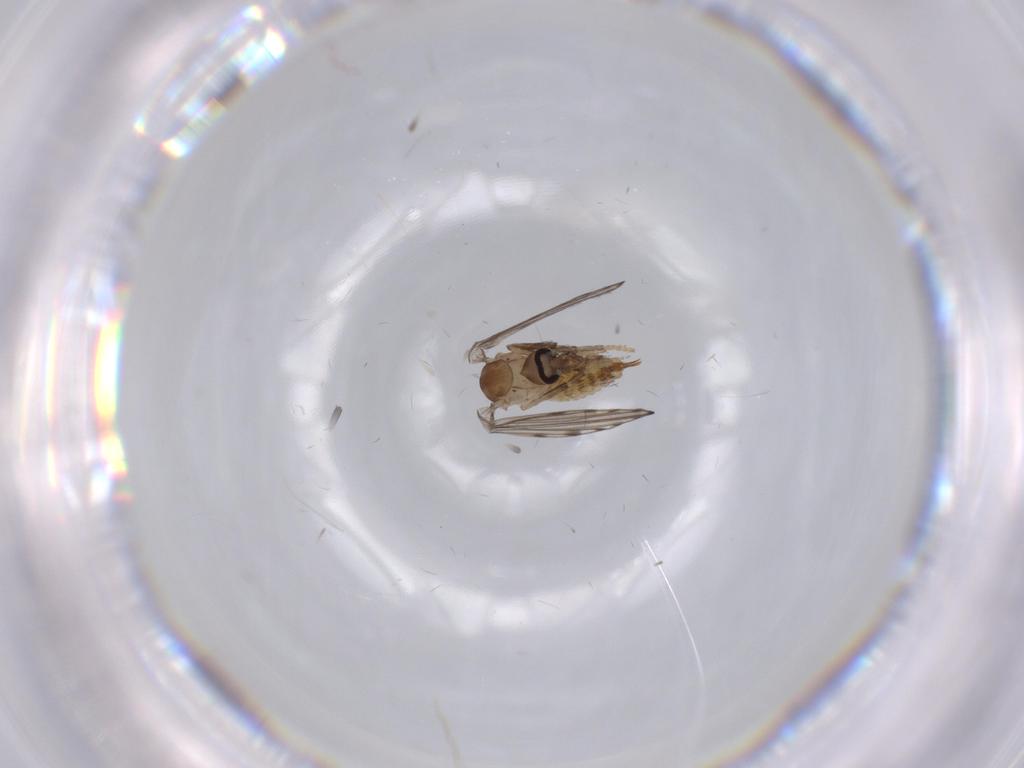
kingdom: Animalia
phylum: Arthropoda
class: Insecta
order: Diptera
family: Psychodidae
